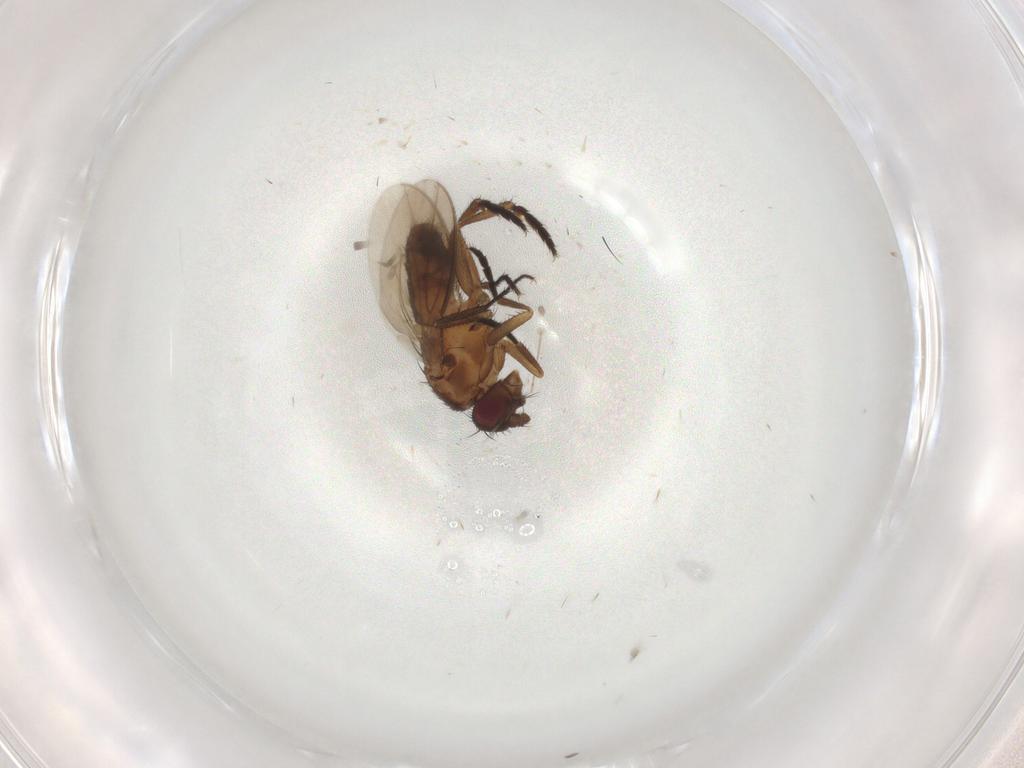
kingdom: Animalia
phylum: Arthropoda
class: Insecta
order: Diptera
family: Sphaeroceridae
